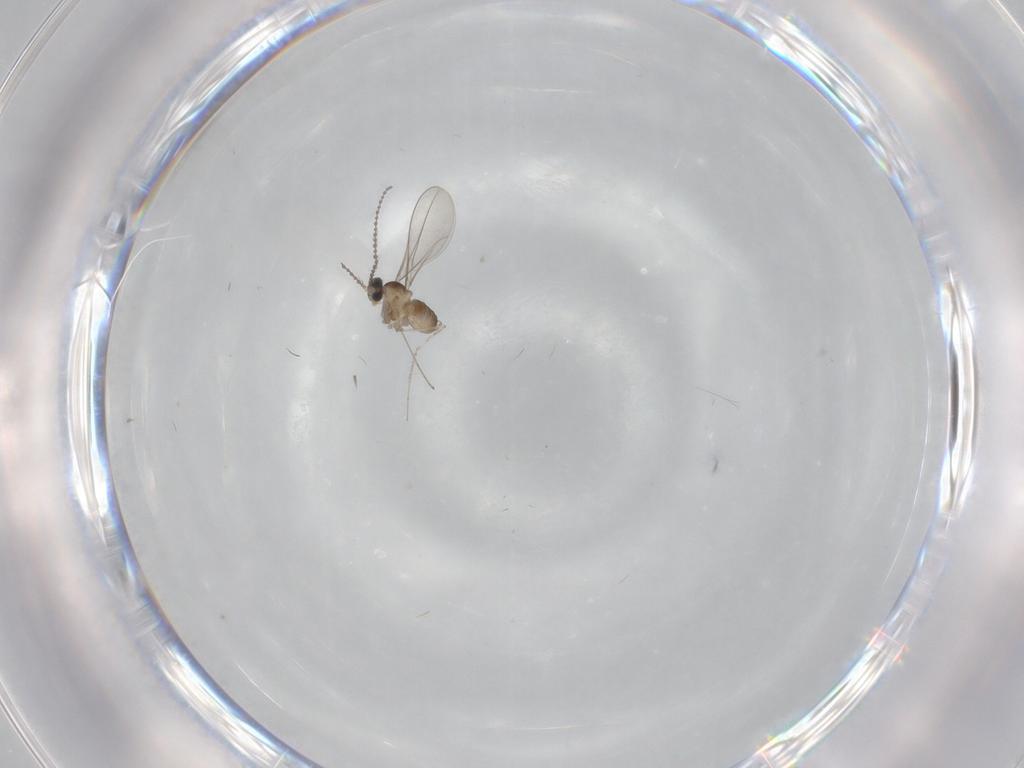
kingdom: Animalia
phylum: Arthropoda
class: Insecta
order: Diptera
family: Cecidomyiidae
